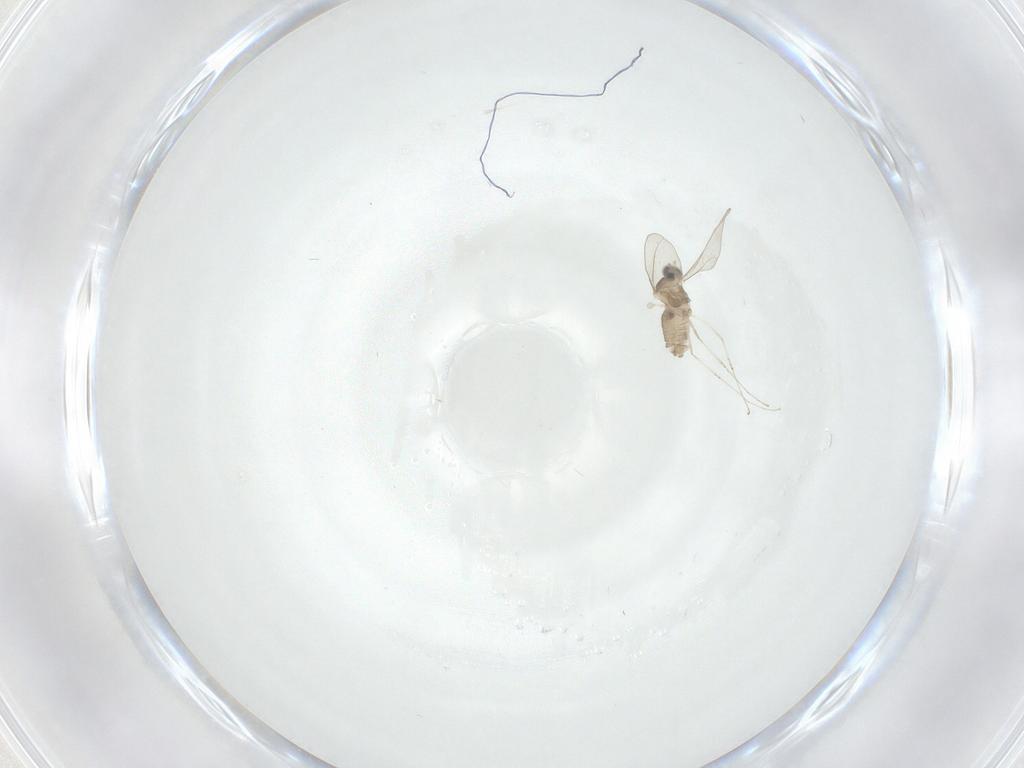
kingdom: Animalia
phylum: Arthropoda
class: Insecta
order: Diptera
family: Cecidomyiidae
